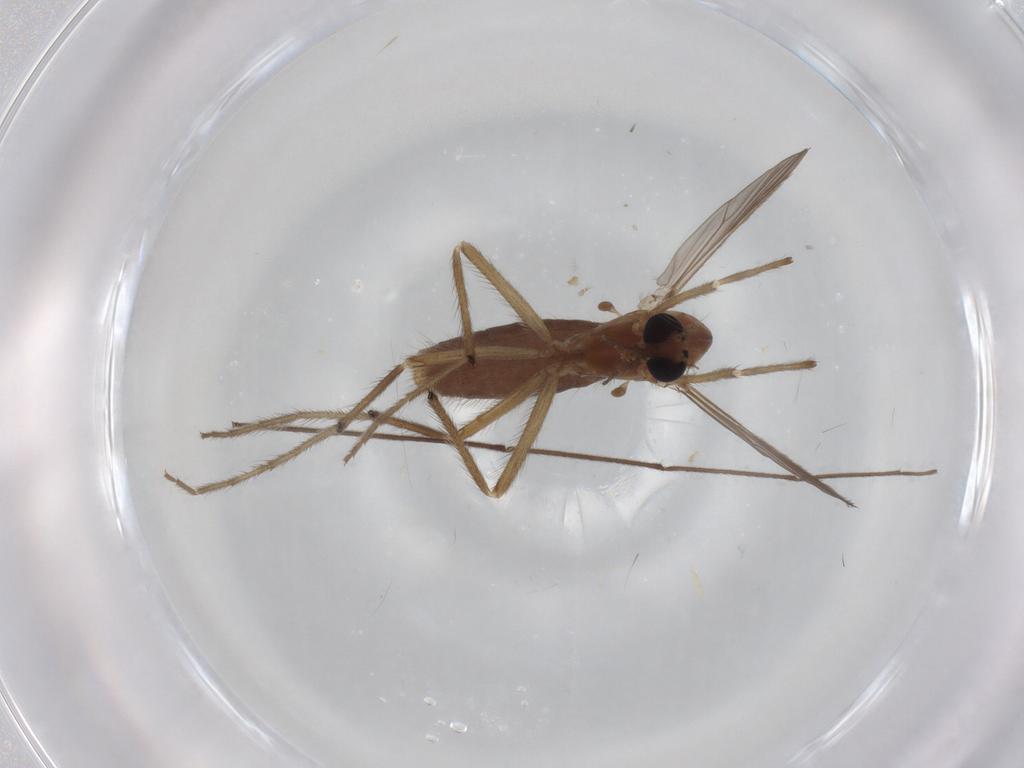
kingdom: Animalia
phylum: Arthropoda
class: Insecta
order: Diptera
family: Chironomidae
